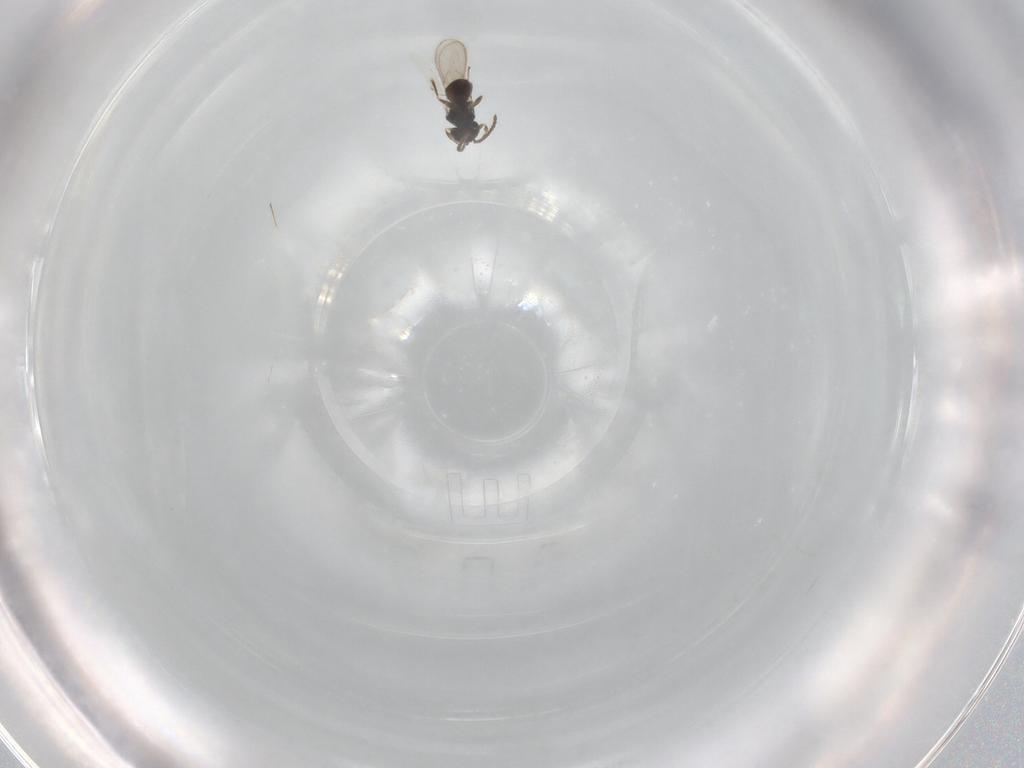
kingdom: Animalia
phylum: Arthropoda
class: Insecta
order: Hymenoptera
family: Scelionidae
